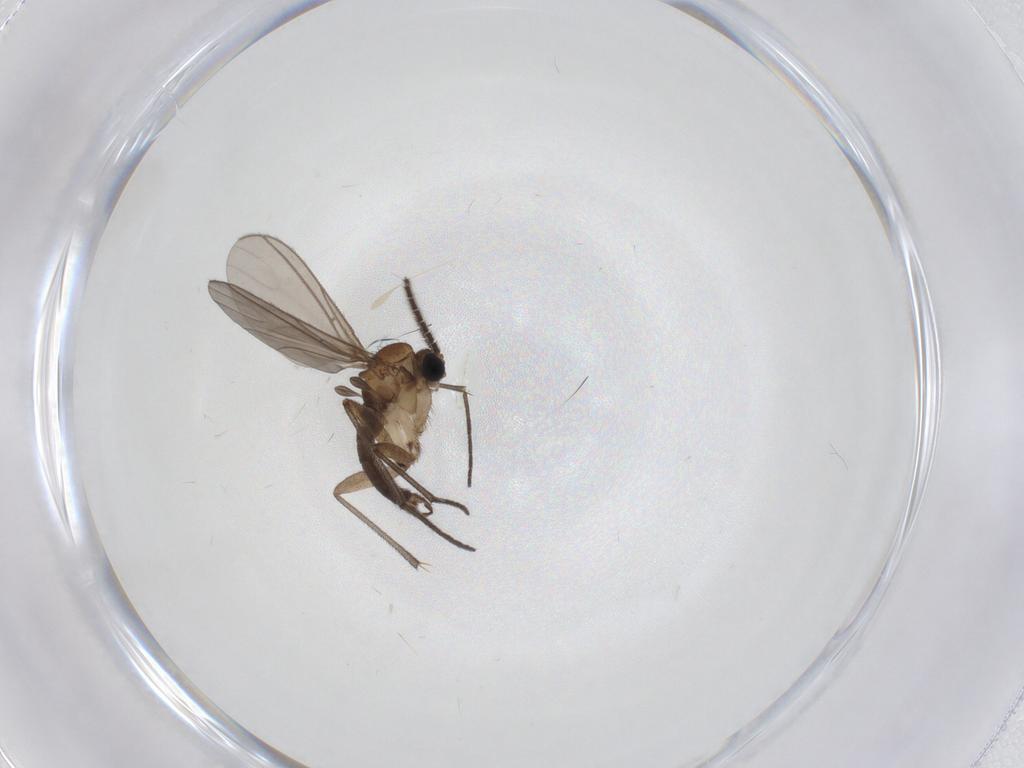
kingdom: Animalia
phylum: Arthropoda
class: Insecta
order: Diptera
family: Sciaridae
